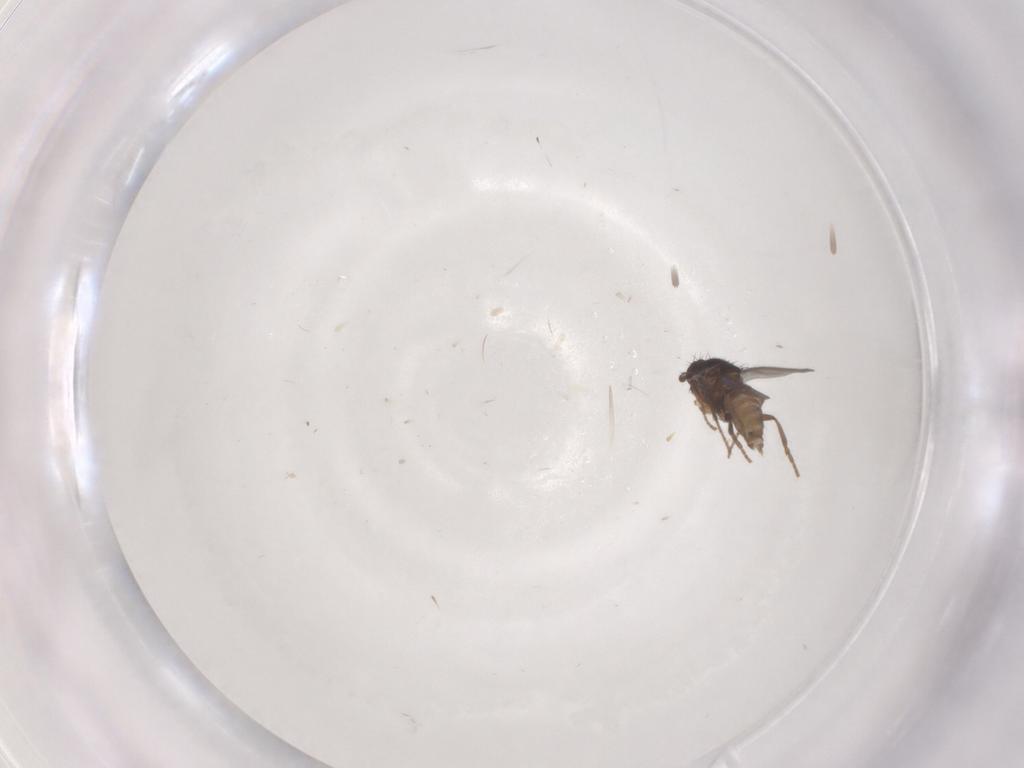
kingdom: Animalia
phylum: Arthropoda
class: Insecta
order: Diptera
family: Sphaeroceridae
